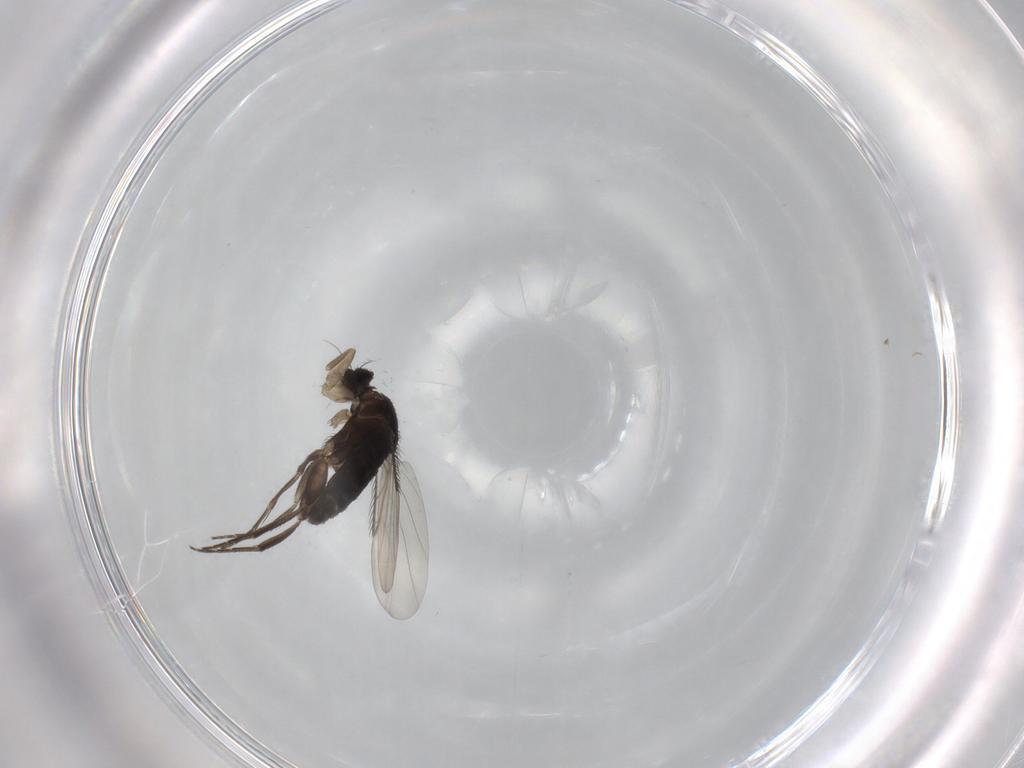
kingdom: Animalia
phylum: Arthropoda
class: Insecta
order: Diptera
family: Phoridae
